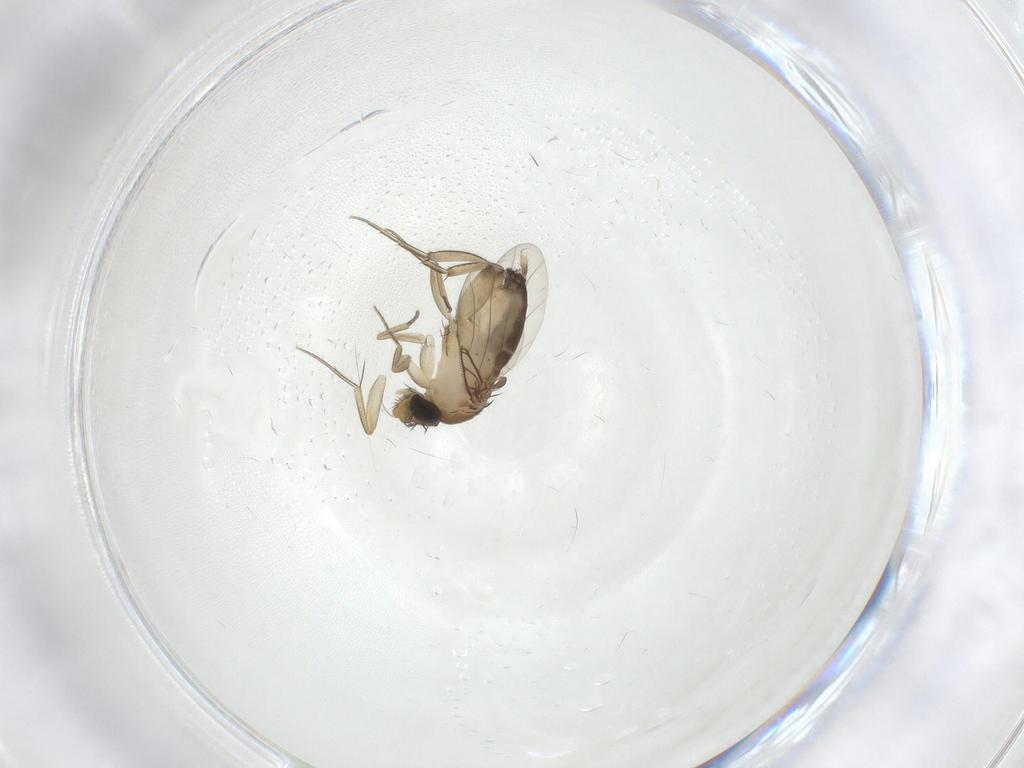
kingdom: Animalia
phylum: Arthropoda
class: Insecta
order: Diptera
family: Phoridae
